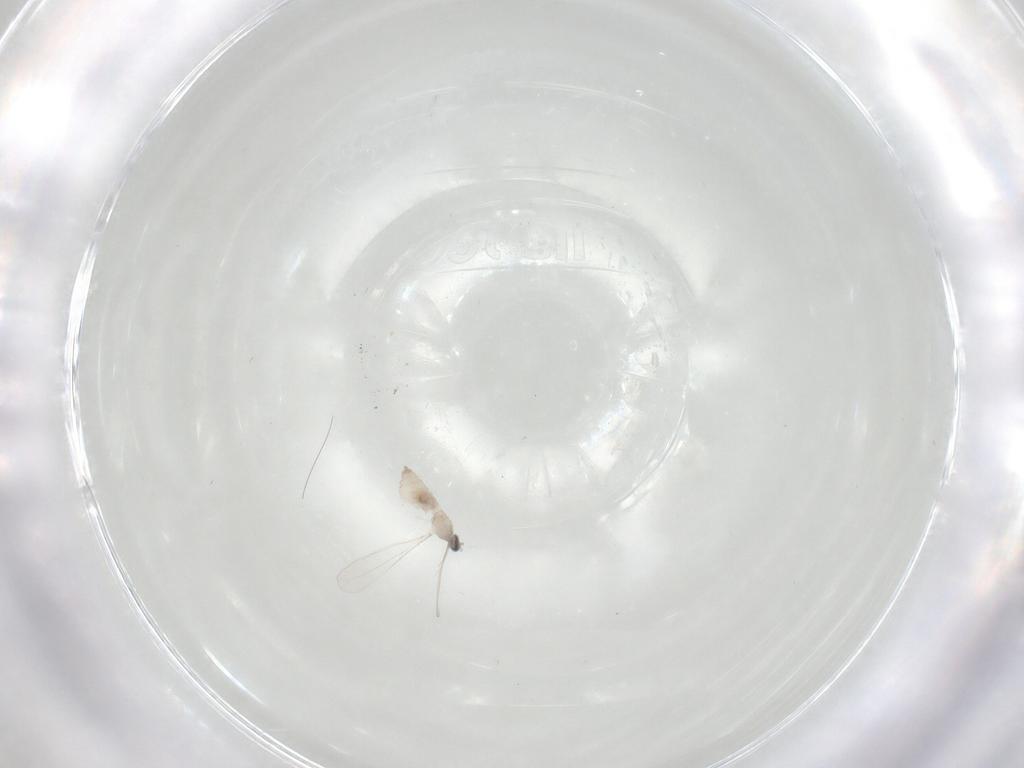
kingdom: Animalia
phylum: Arthropoda
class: Insecta
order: Diptera
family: Cecidomyiidae
